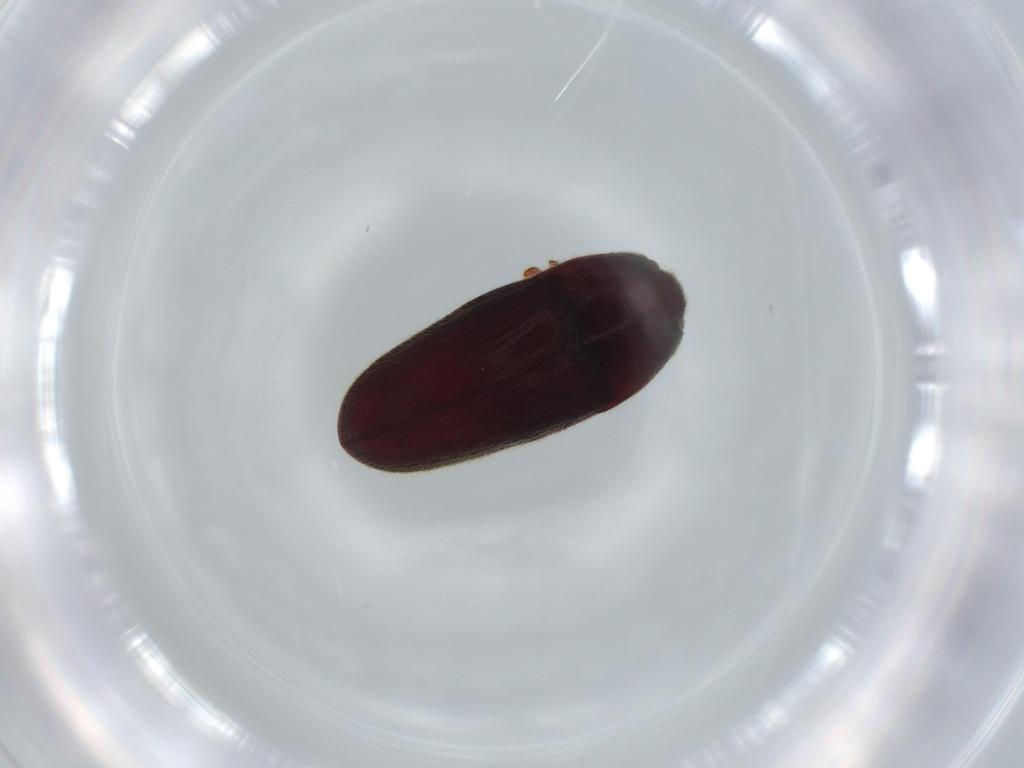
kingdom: Animalia
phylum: Arthropoda
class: Insecta
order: Coleoptera
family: Throscidae
